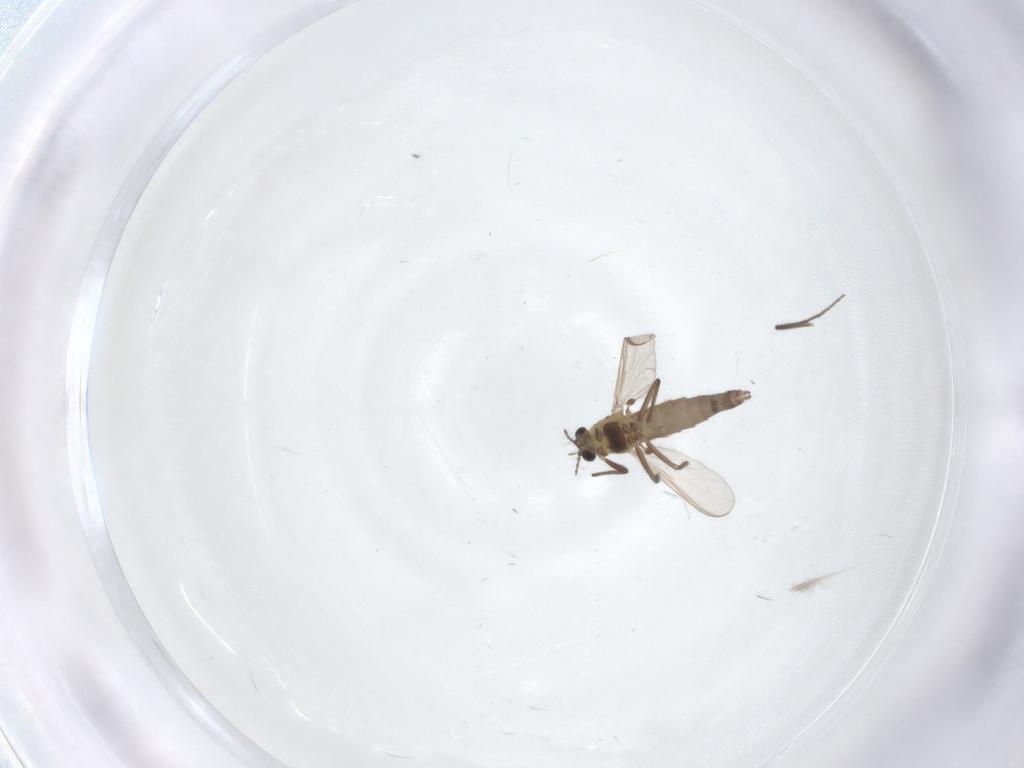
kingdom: Animalia
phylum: Arthropoda
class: Insecta
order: Diptera
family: Chironomidae
